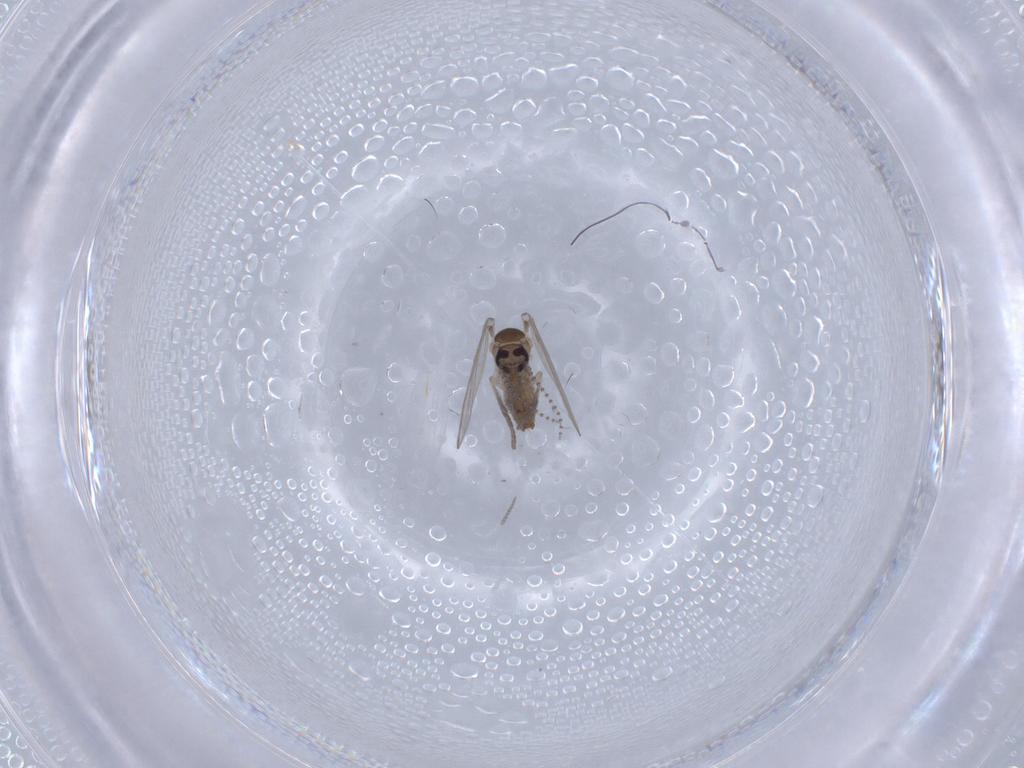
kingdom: Animalia
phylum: Arthropoda
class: Insecta
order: Diptera
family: Psychodidae
